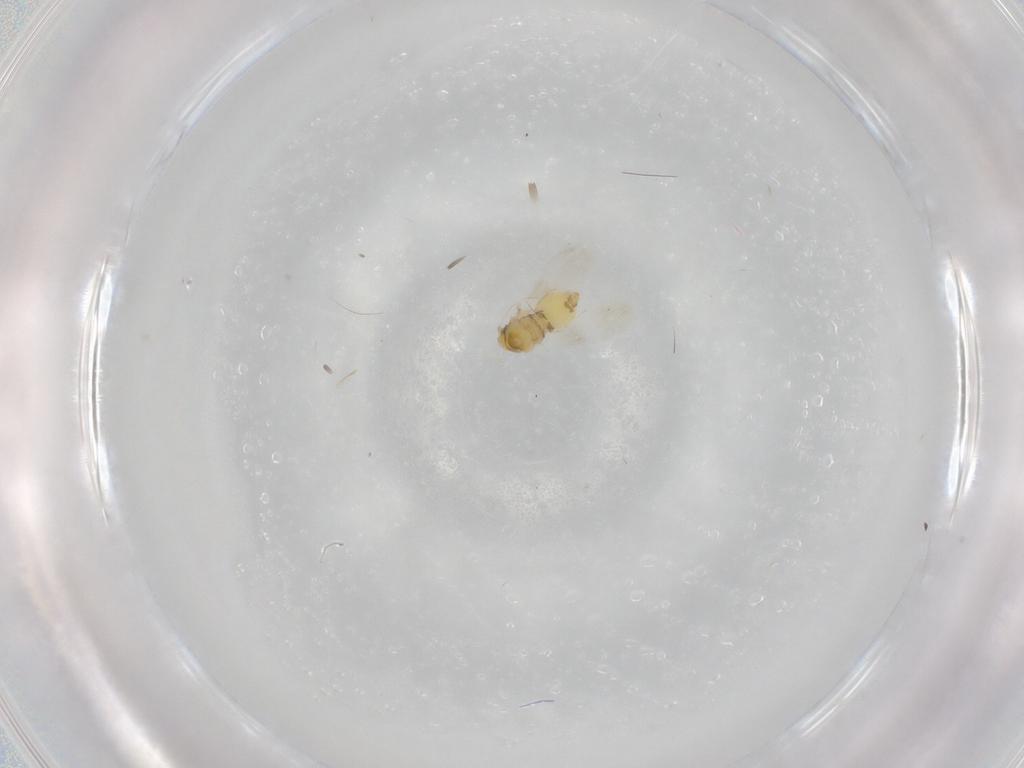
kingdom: Animalia
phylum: Arthropoda
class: Insecta
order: Hemiptera
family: Aleyrodidae
